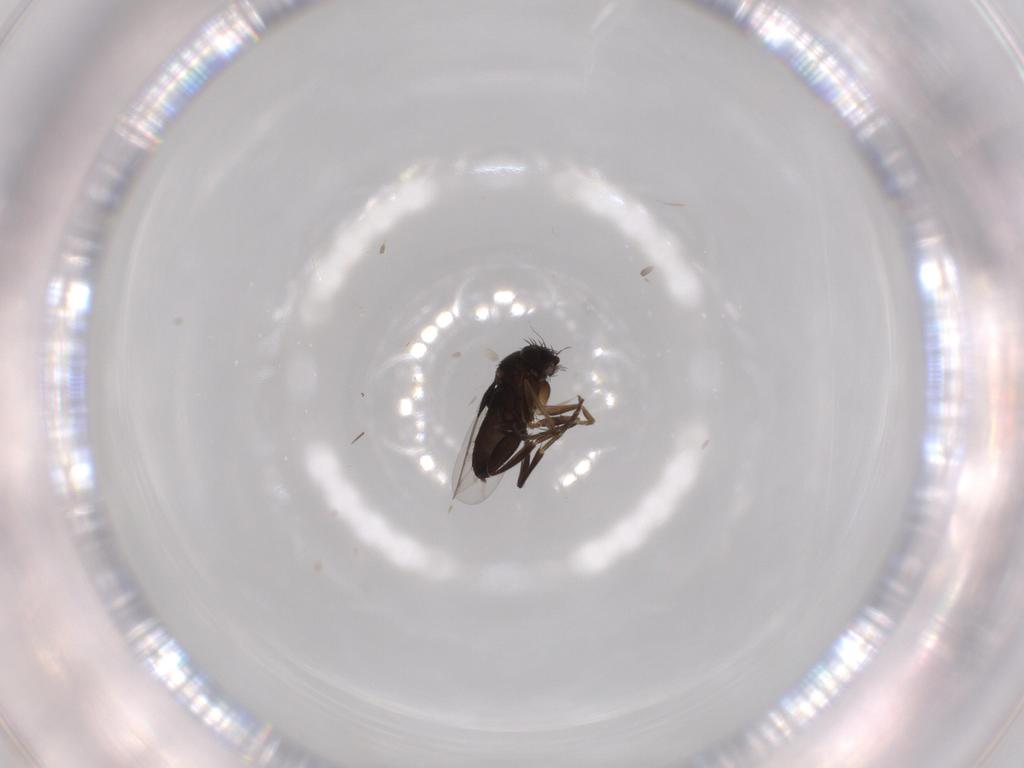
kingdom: Animalia
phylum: Arthropoda
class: Insecta
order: Diptera
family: Phoridae
